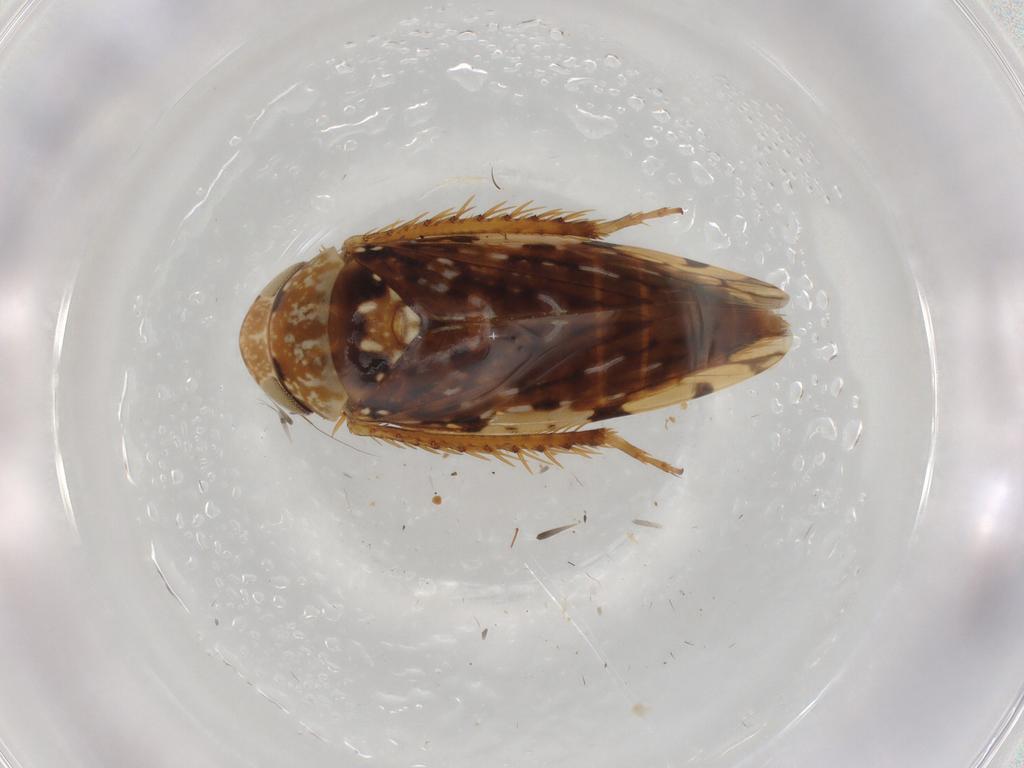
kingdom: Animalia
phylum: Arthropoda
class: Insecta
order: Hemiptera
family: Cicadellidae
